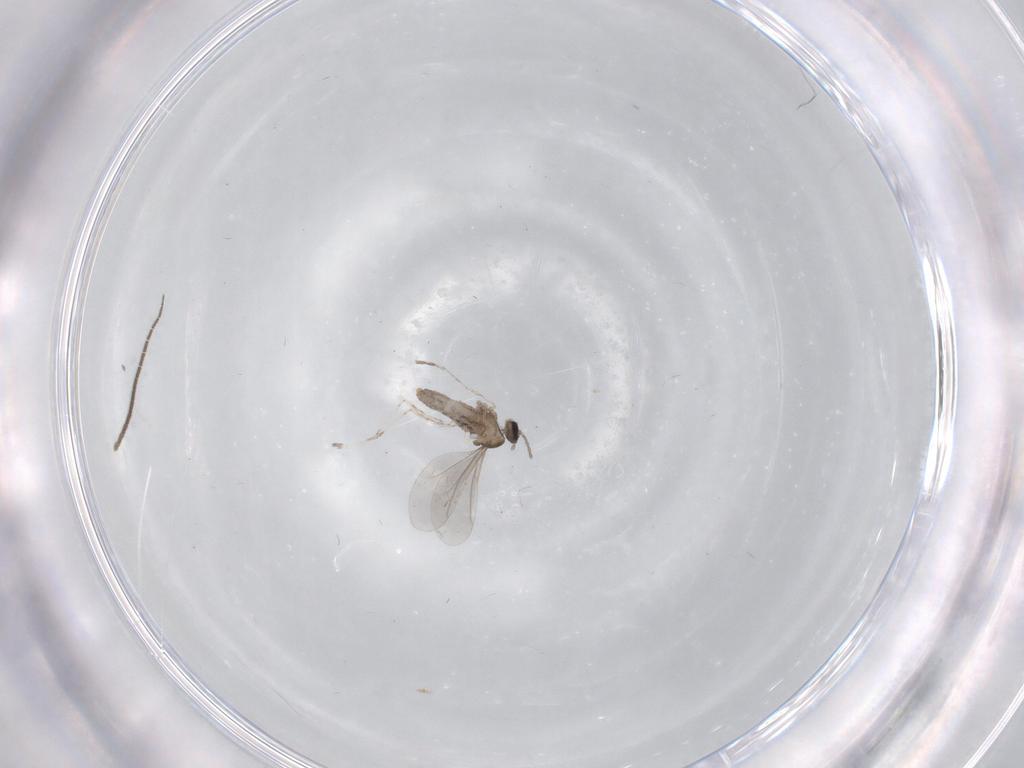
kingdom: Animalia
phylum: Arthropoda
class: Insecta
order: Diptera
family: Cecidomyiidae
